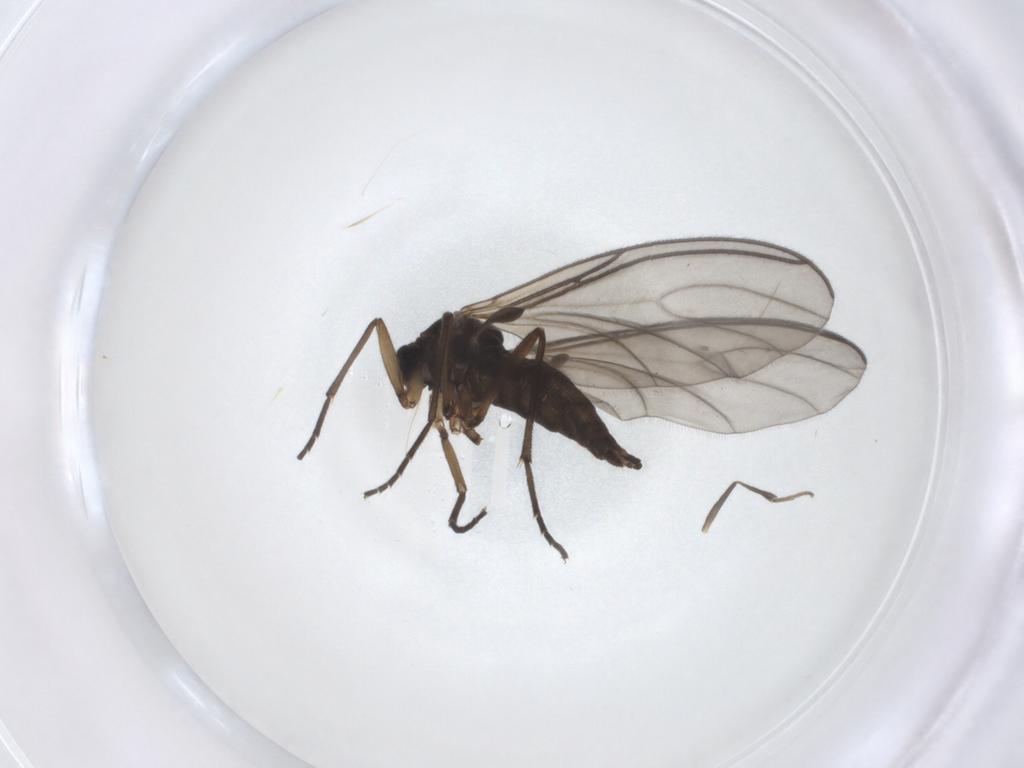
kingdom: Animalia
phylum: Arthropoda
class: Insecta
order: Diptera
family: Sciaridae
